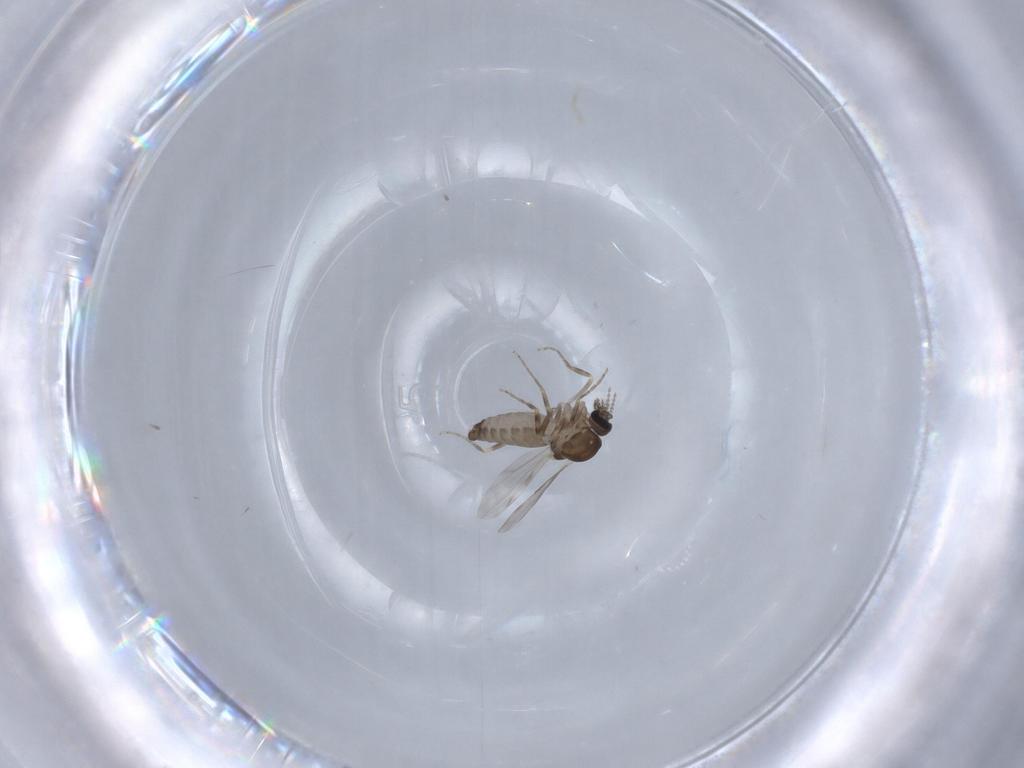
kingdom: Animalia
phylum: Arthropoda
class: Insecta
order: Diptera
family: Ceratopogonidae
